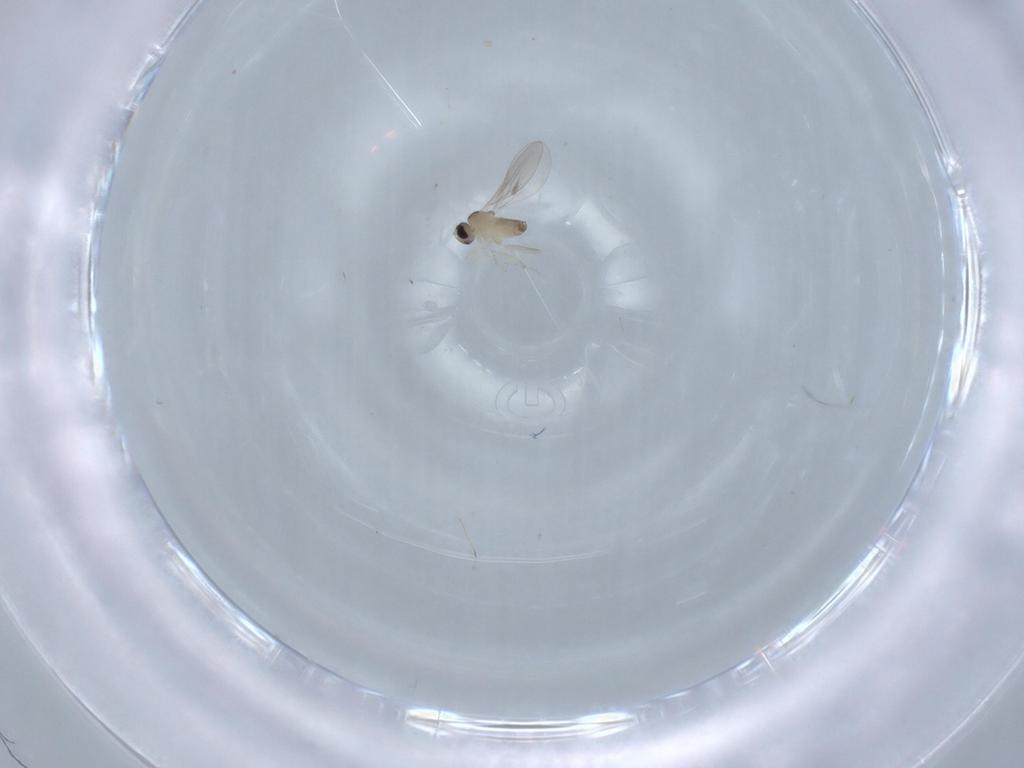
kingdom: Animalia
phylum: Arthropoda
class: Insecta
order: Diptera
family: Cecidomyiidae
